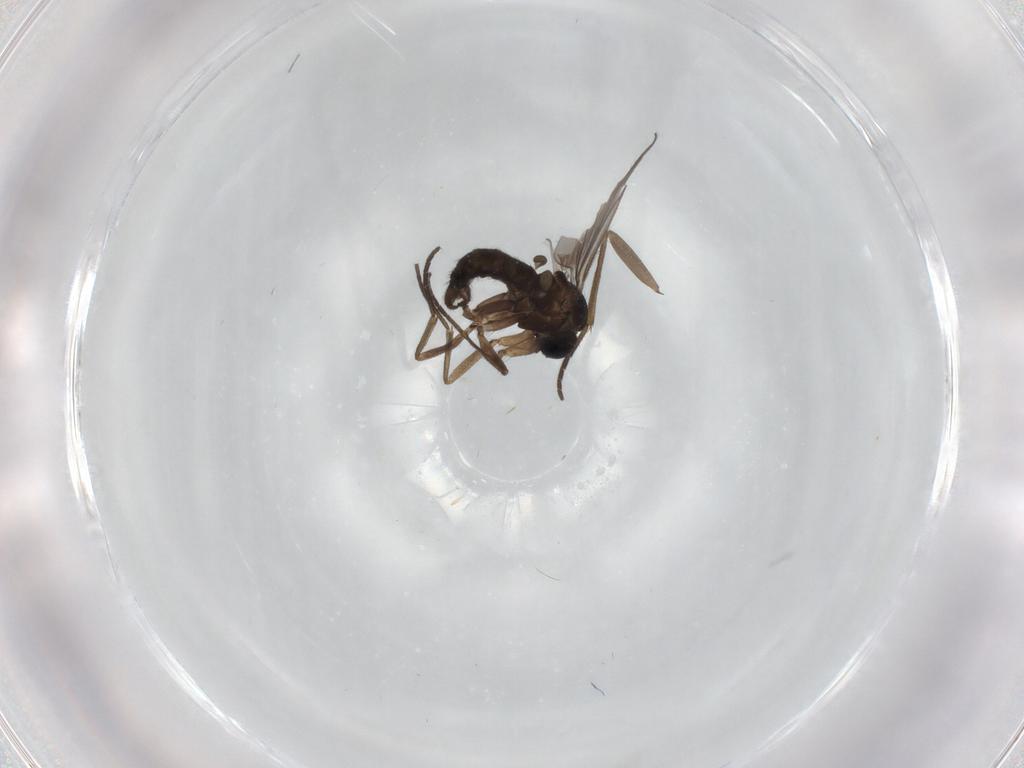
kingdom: Animalia
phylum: Arthropoda
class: Insecta
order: Diptera
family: Sciaridae
